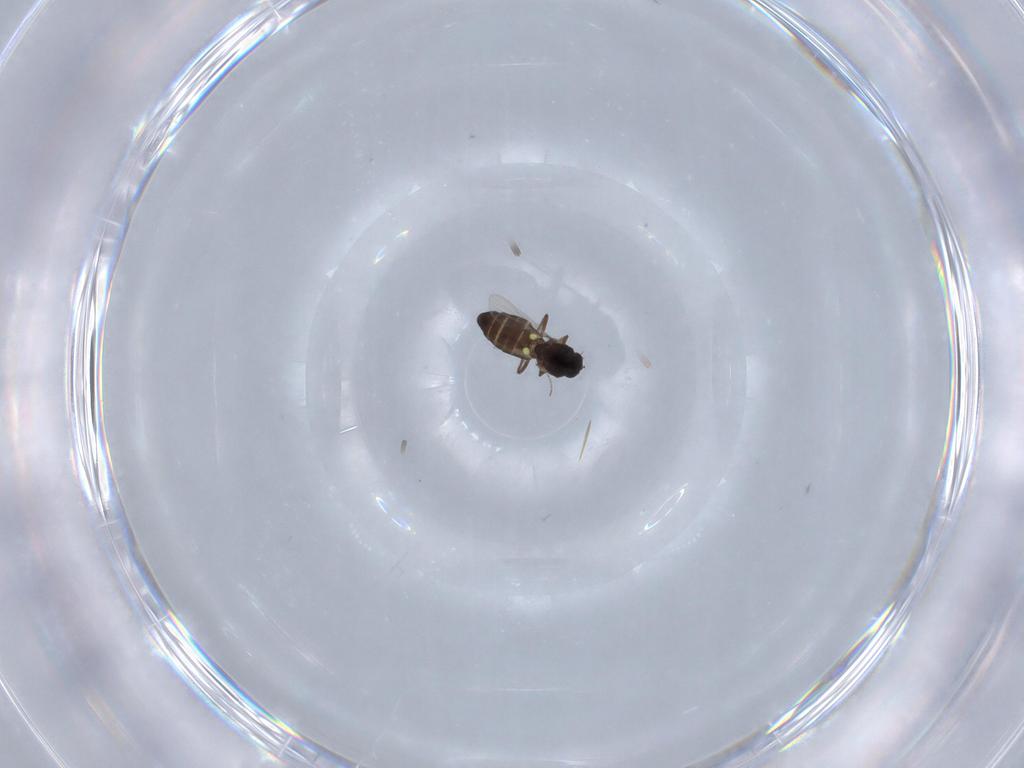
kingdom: Animalia
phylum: Arthropoda
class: Insecta
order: Diptera
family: Ceratopogonidae
